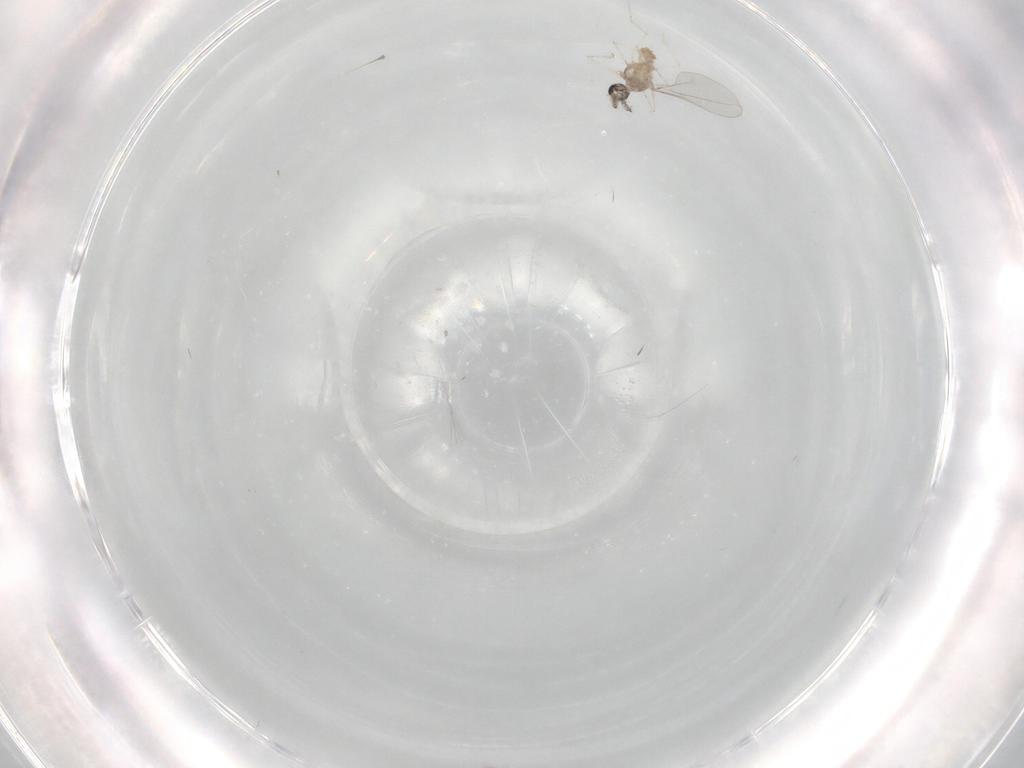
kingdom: Animalia
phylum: Arthropoda
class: Insecta
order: Diptera
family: Cecidomyiidae
